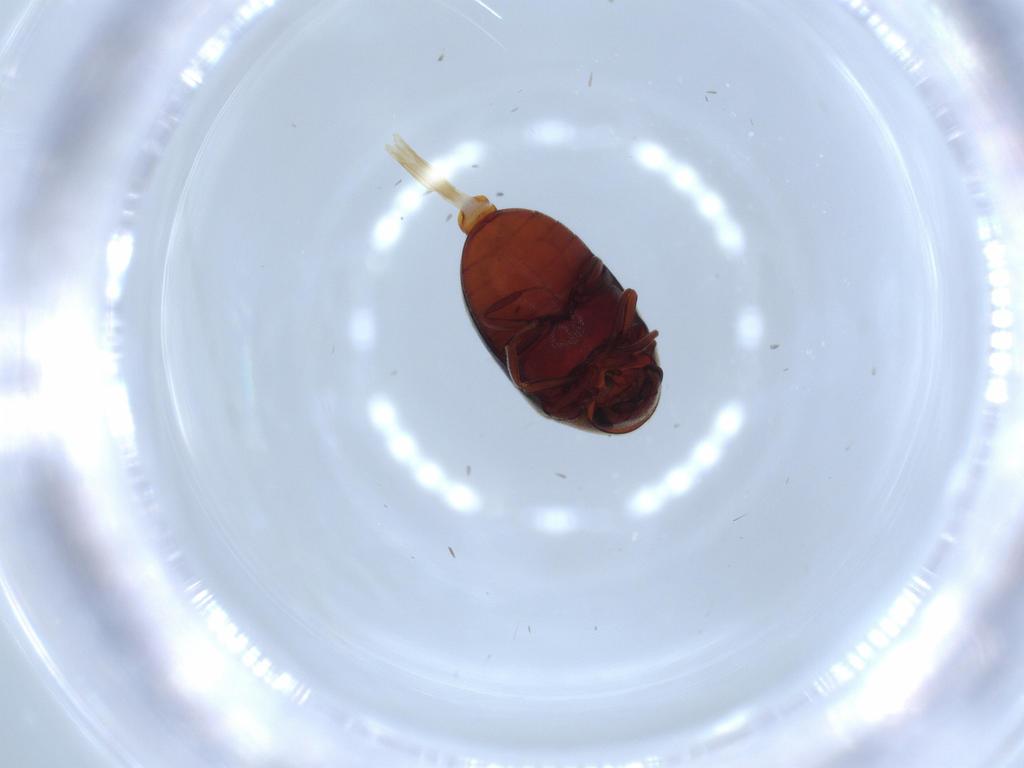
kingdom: Animalia
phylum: Arthropoda
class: Insecta
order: Coleoptera
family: Ptinidae
